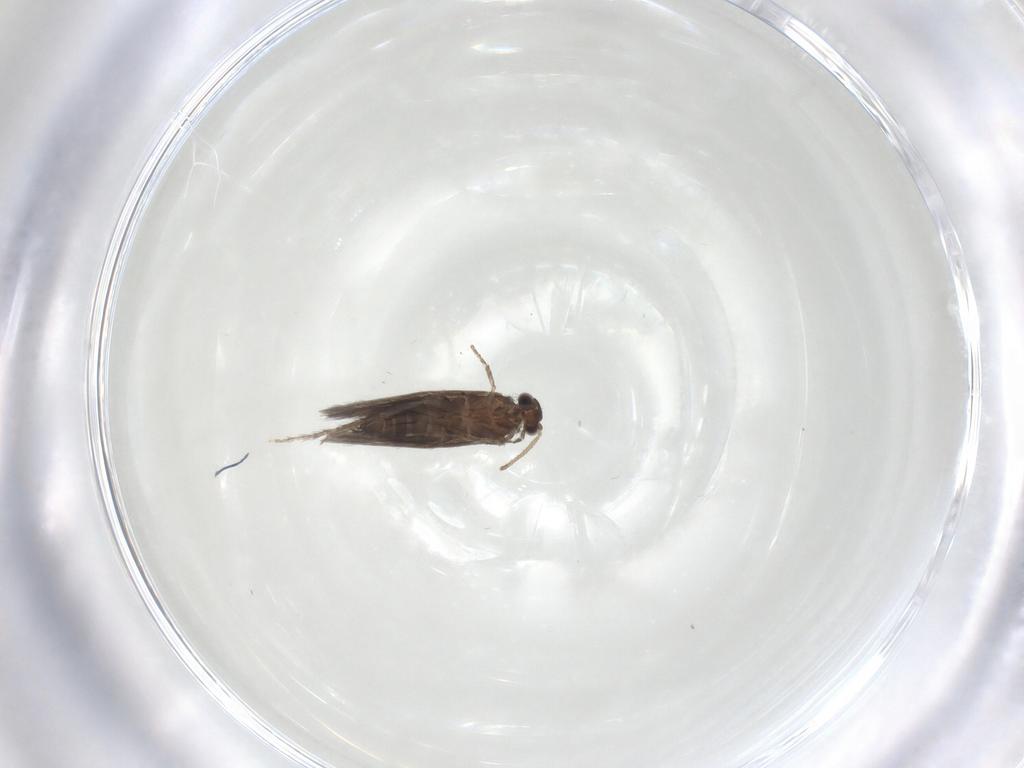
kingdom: Animalia
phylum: Arthropoda
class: Insecta
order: Trichoptera
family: Hydroptilidae
